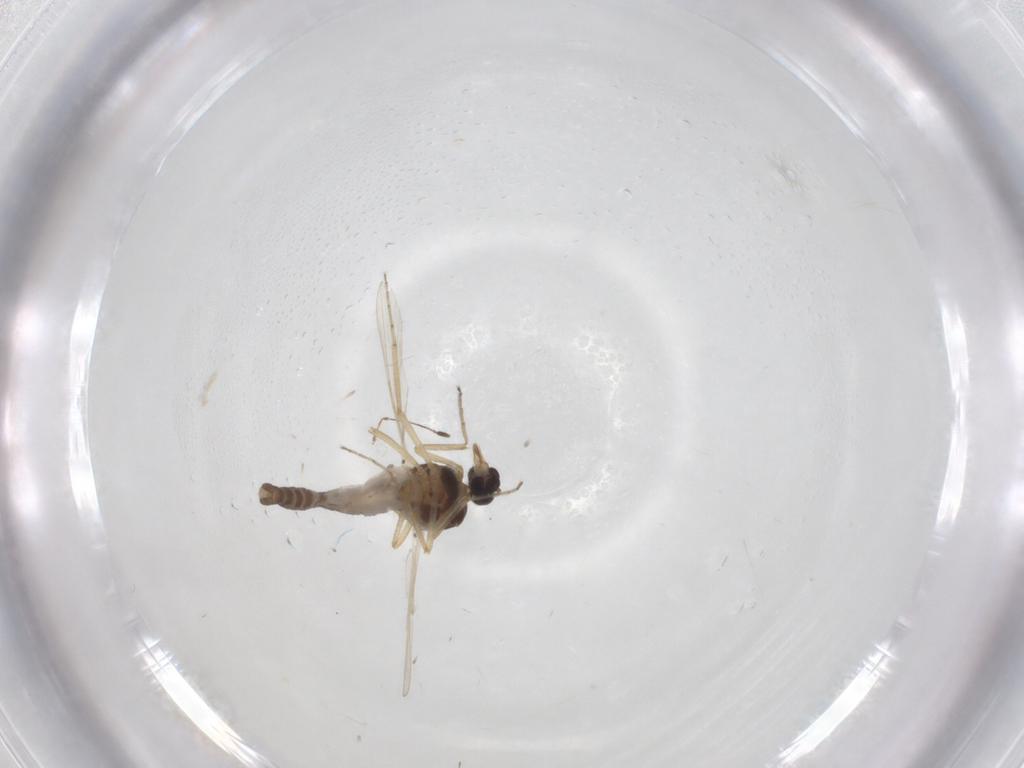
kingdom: Animalia
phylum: Arthropoda
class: Insecta
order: Diptera
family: Ceratopogonidae
